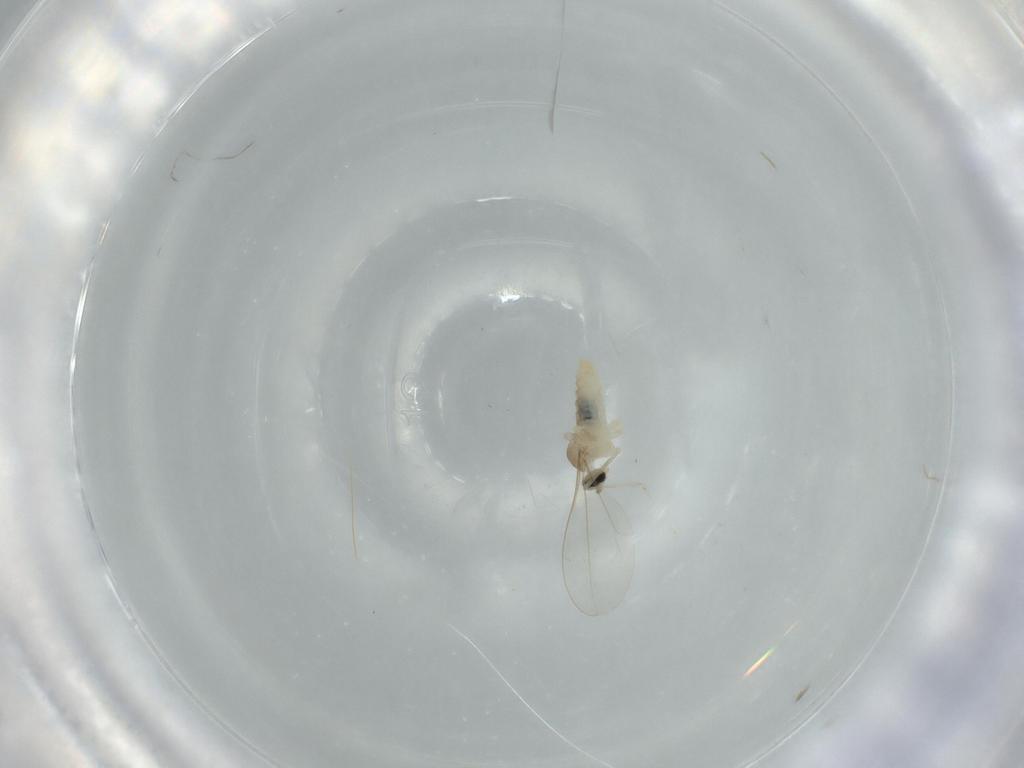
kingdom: Animalia
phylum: Arthropoda
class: Insecta
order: Diptera
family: Cecidomyiidae
